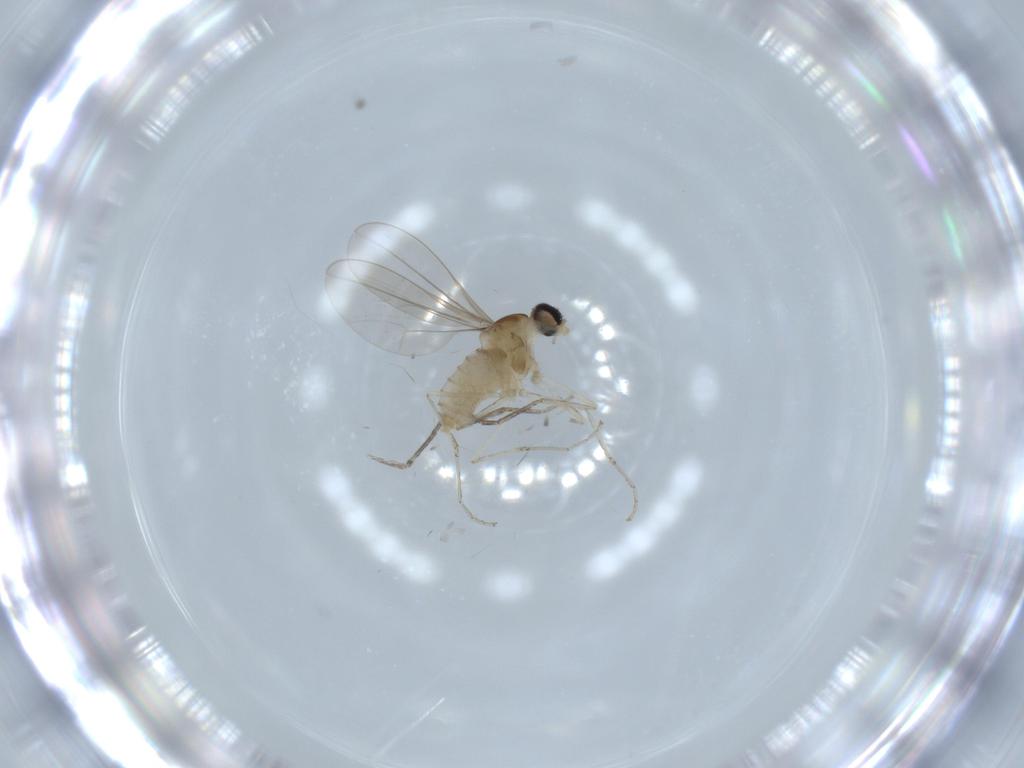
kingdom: Animalia
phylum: Arthropoda
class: Insecta
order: Diptera
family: Cecidomyiidae
